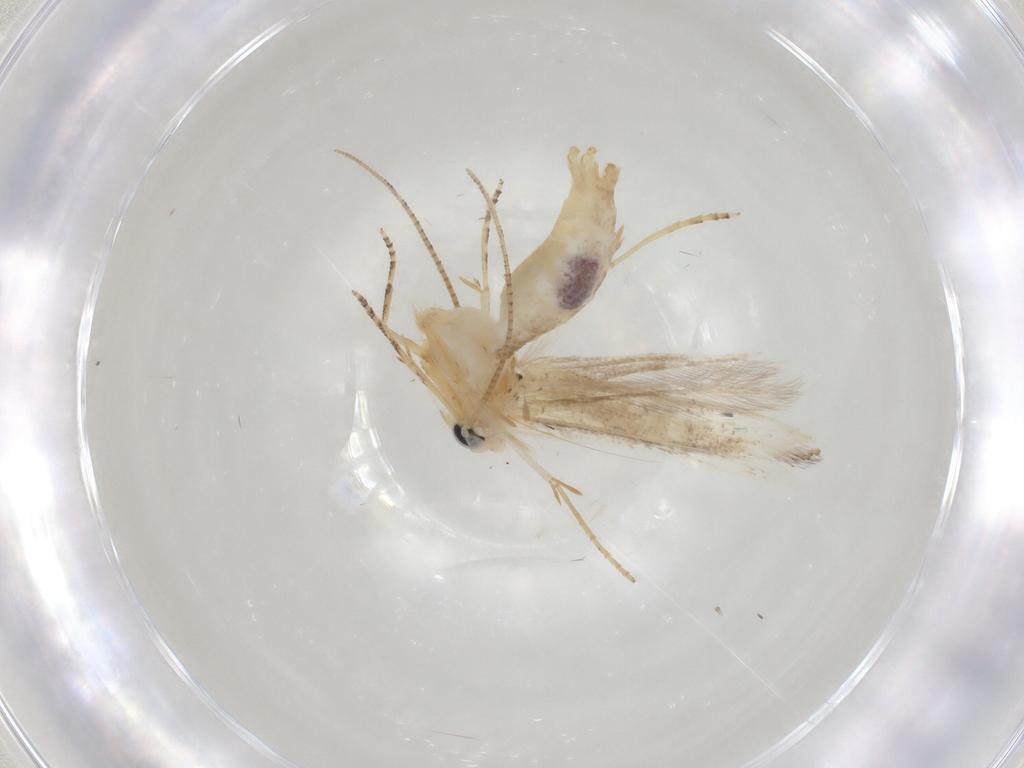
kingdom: Animalia
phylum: Arthropoda
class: Insecta
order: Lepidoptera
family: Bucculatricidae
